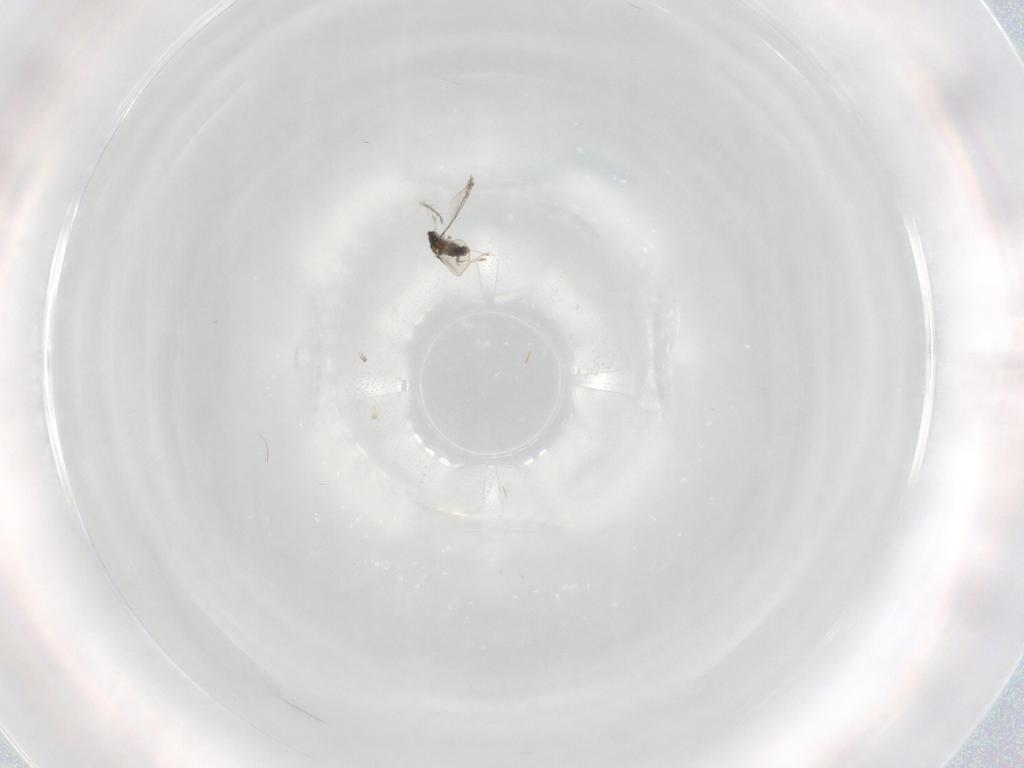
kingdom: Animalia
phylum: Arthropoda
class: Insecta
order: Diptera
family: Chironomidae
